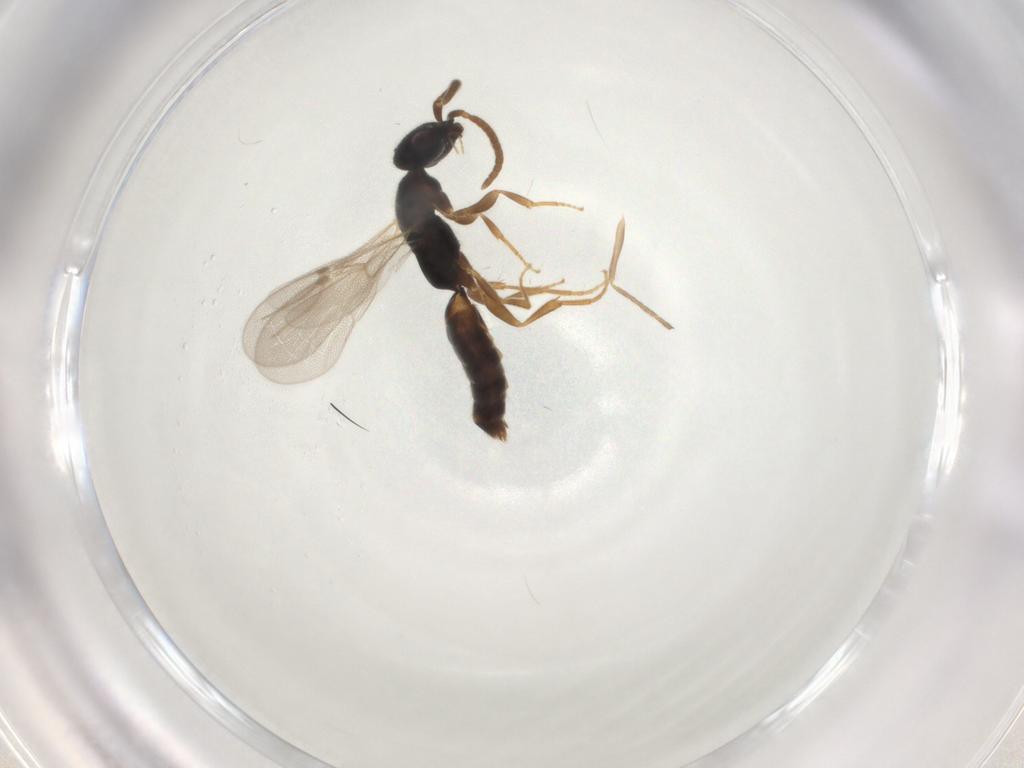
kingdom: Animalia
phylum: Arthropoda
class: Insecta
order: Hymenoptera
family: Bethylidae
